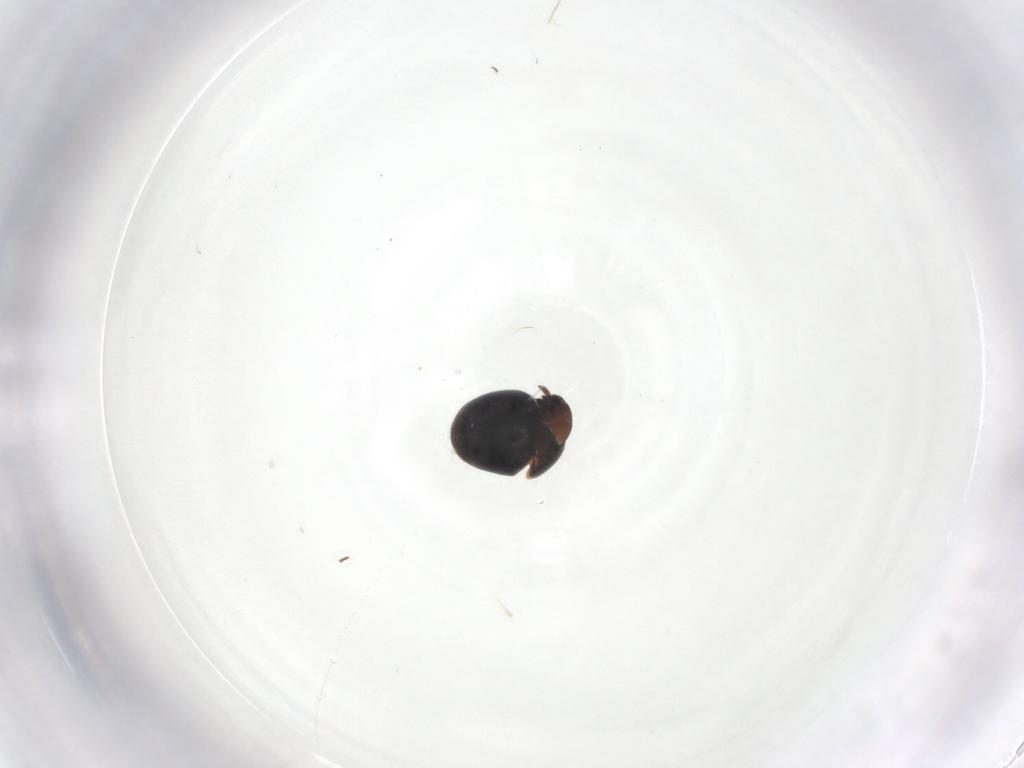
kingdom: Animalia
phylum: Arthropoda
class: Insecta
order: Coleoptera
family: Cybocephalidae
